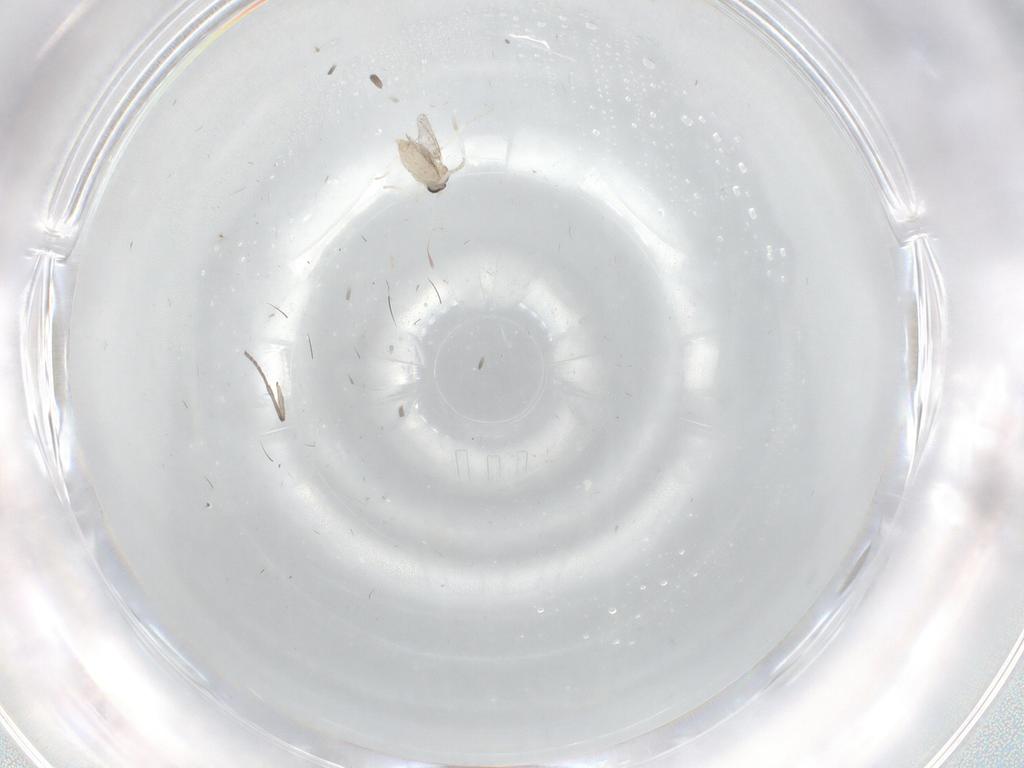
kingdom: Animalia
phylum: Arthropoda
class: Insecta
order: Diptera
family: Cecidomyiidae
